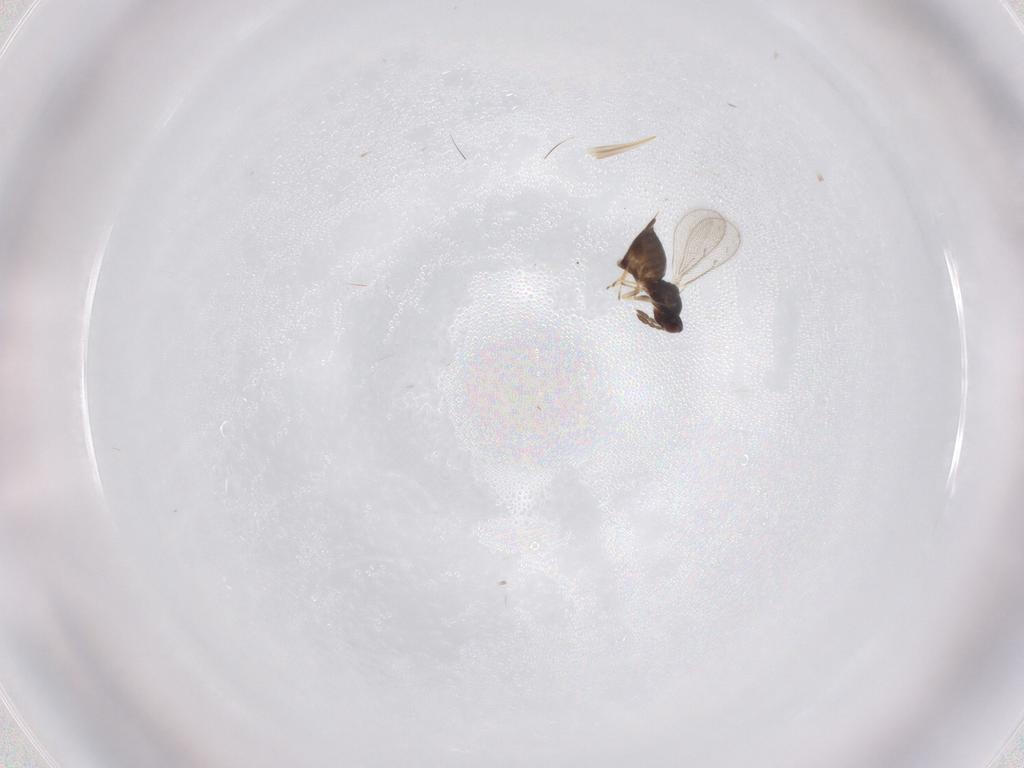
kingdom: Animalia
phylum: Arthropoda
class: Insecta
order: Hymenoptera
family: Eulophidae
